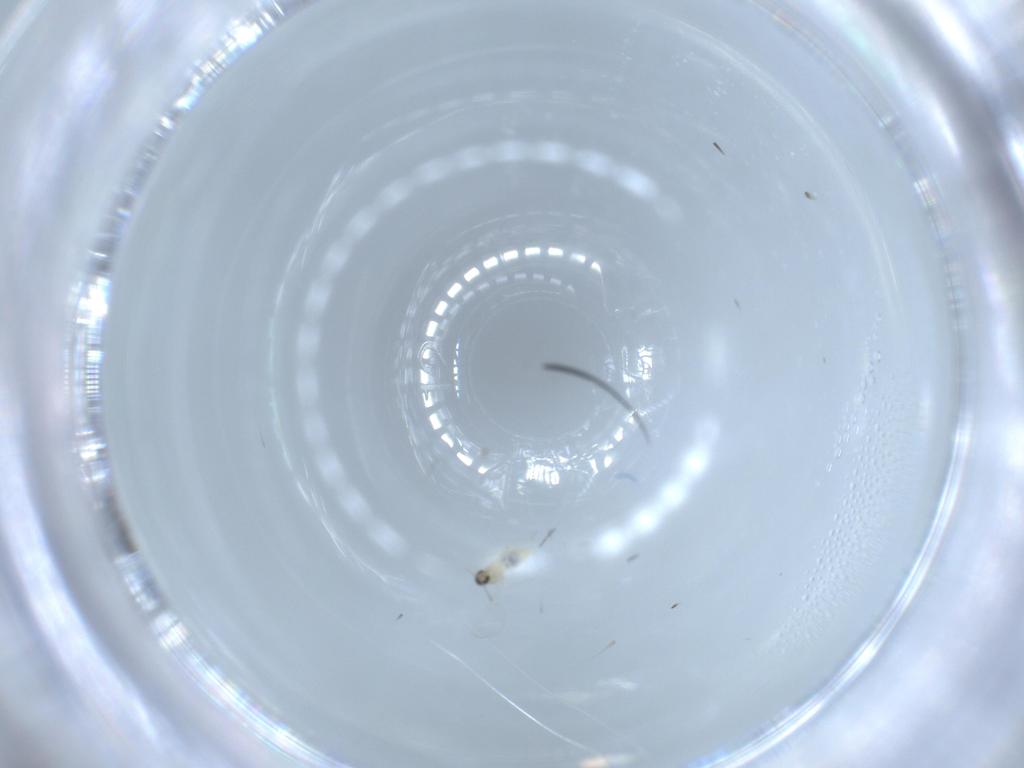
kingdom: Animalia
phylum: Arthropoda
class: Insecta
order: Diptera
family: Cecidomyiidae
